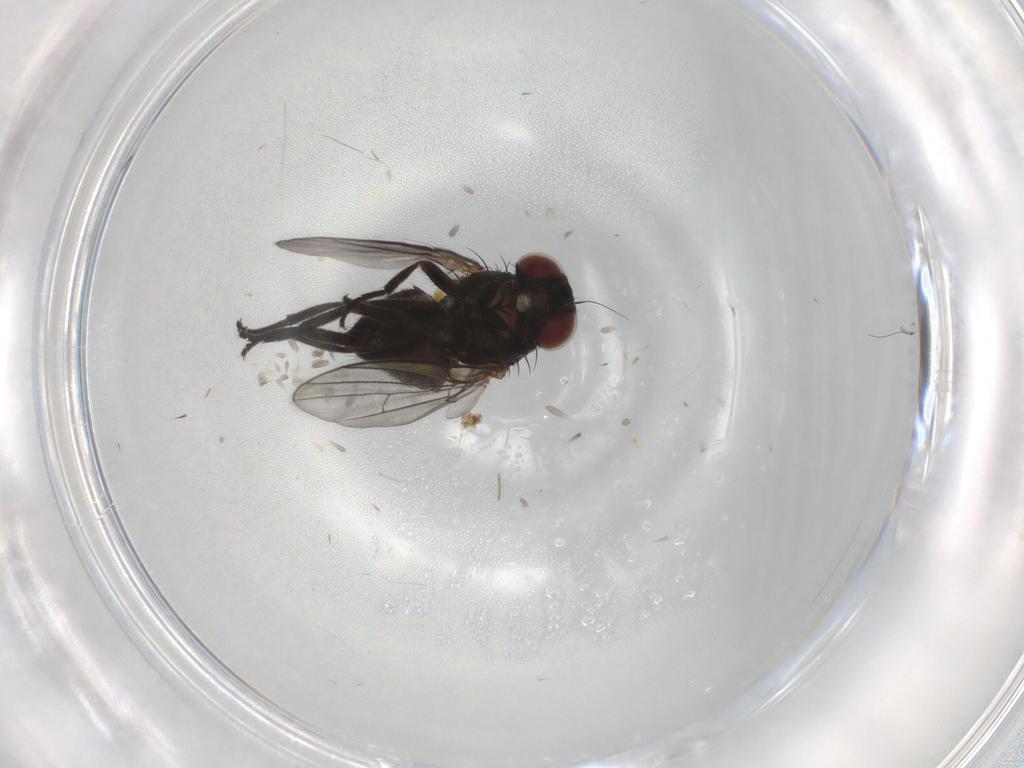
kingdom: Animalia
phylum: Arthropoda
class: Insecta
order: Diptera
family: Agromyzidae
